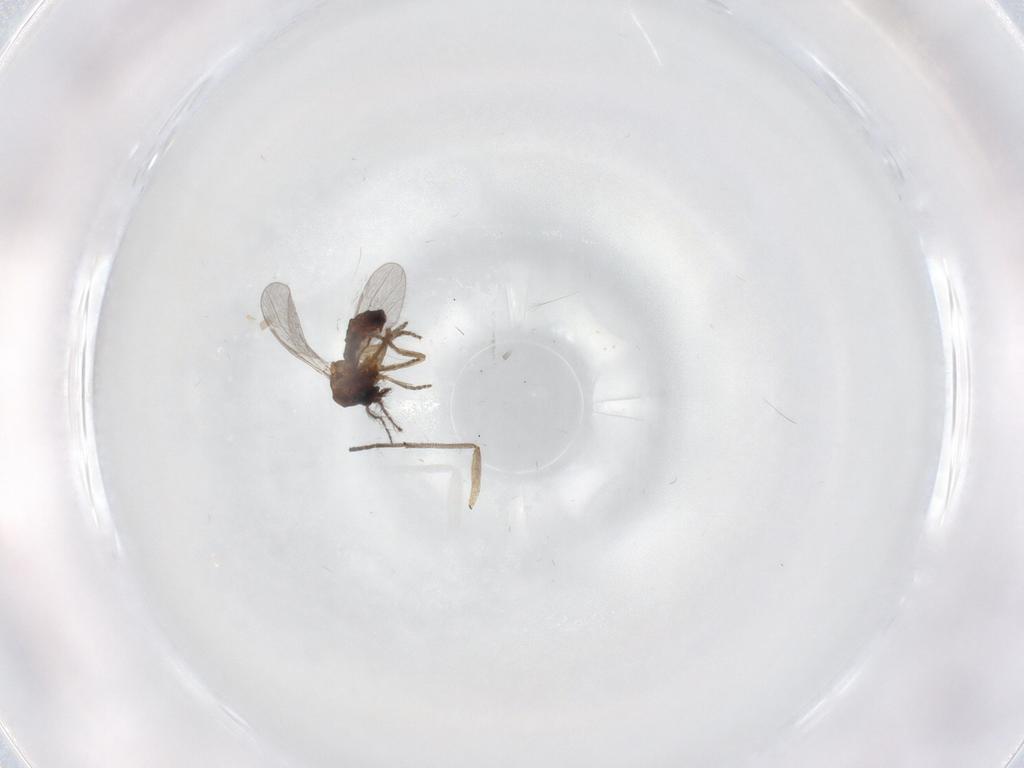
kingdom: Animalia
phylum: Arthropoda
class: Insecta
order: Diptera
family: Ceratopogonidae
